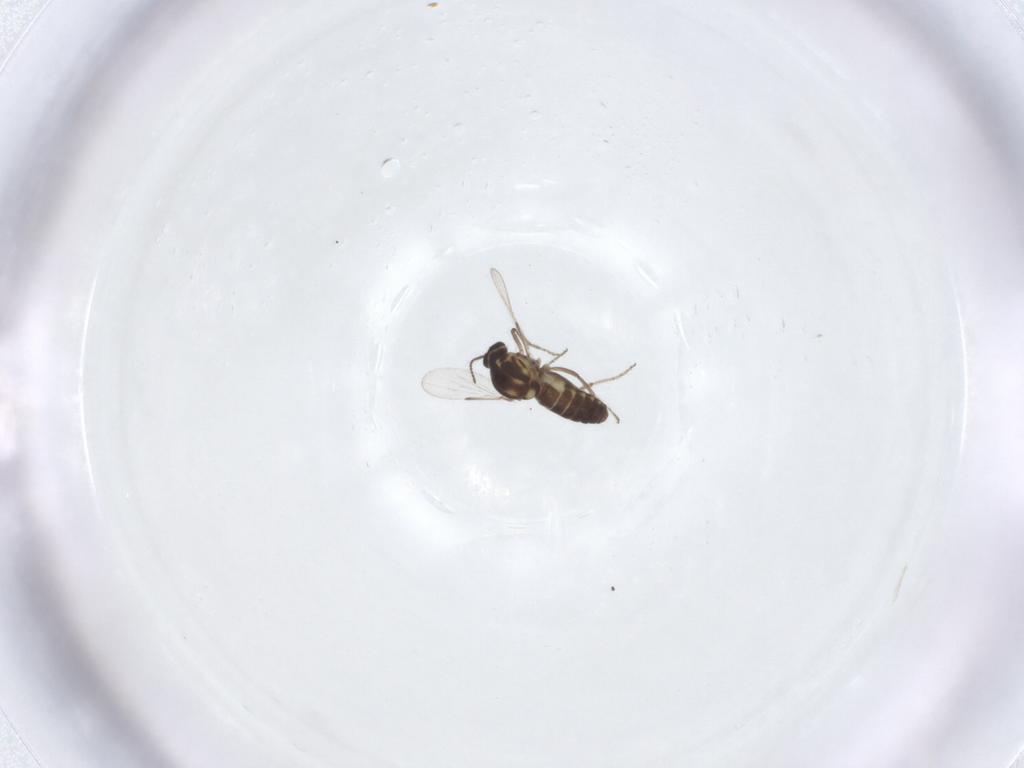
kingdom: Animalia
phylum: Arthropoda
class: Insecta
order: Diptera
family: Ceratopogonidae
